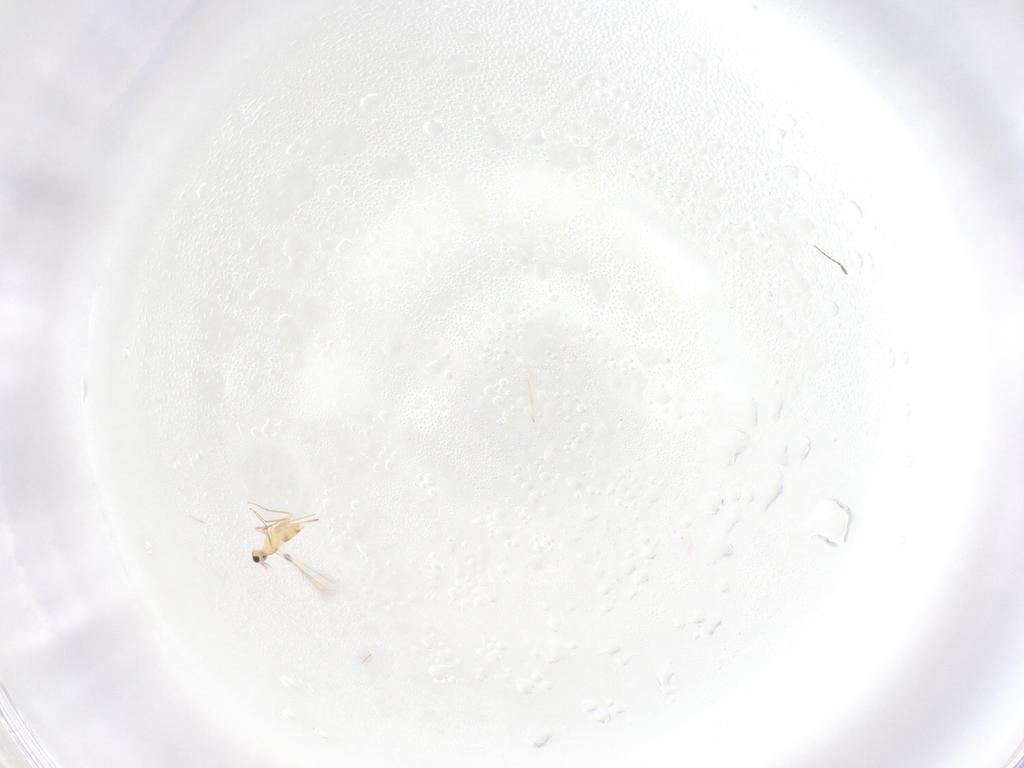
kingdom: Animalia
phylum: Arthropoda
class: Insecta
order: Hymenoptera
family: Mymaridae
